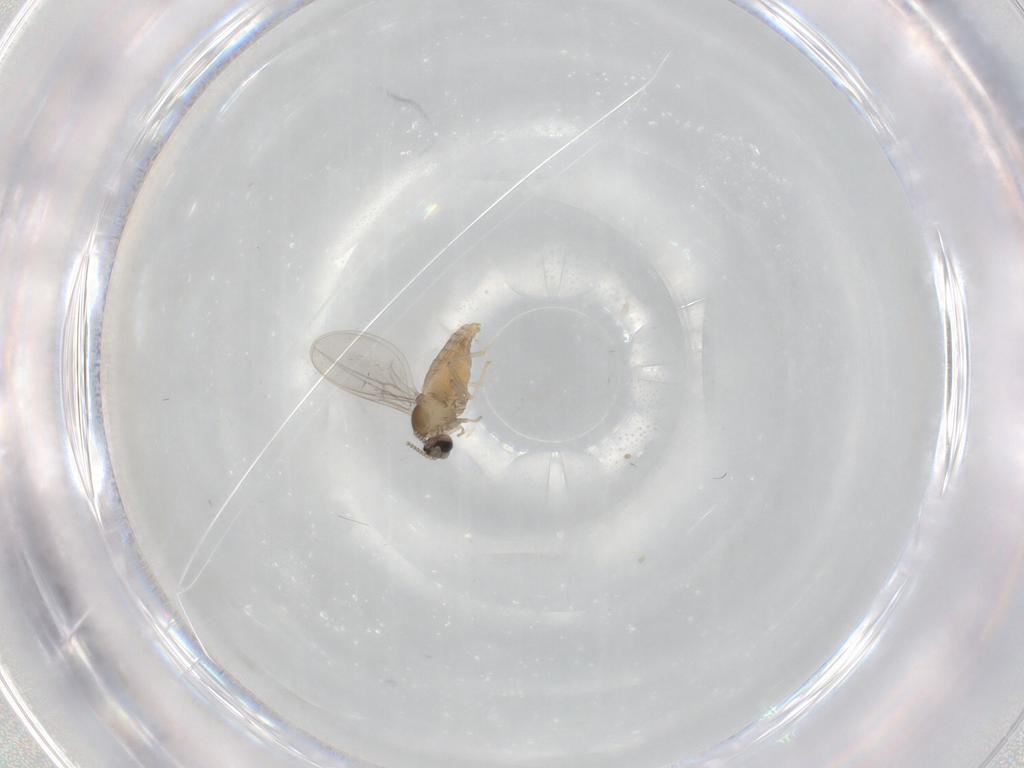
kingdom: Animalia
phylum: Arthropoda
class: Insecta
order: Diptera
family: Cecidomyiidae
